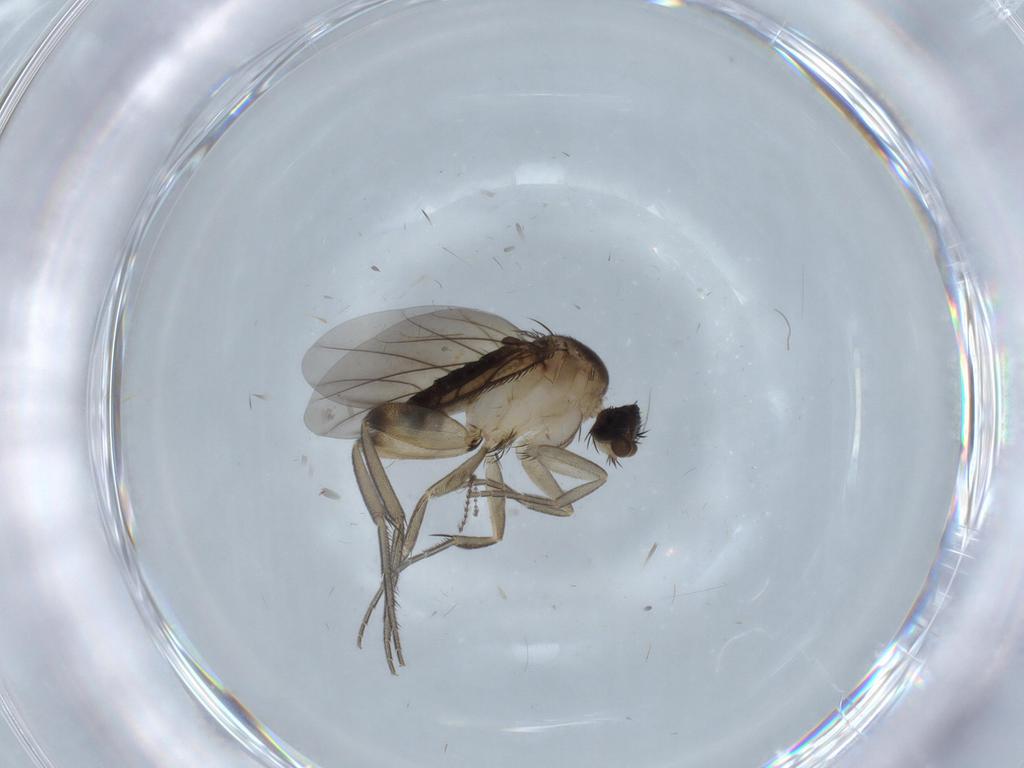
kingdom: Animalia
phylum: Arthropoda
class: Insecta
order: Diptera
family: Phoridae
